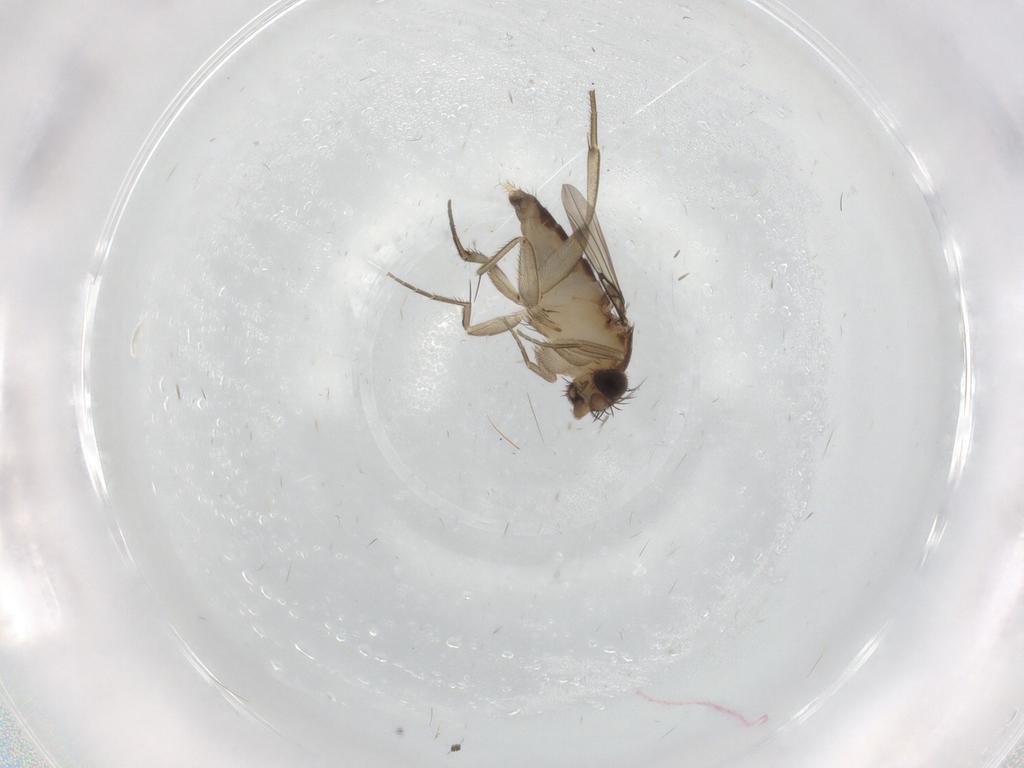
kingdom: Animalia
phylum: Arthropoda
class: Insecta
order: Diptera
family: Phoridae
